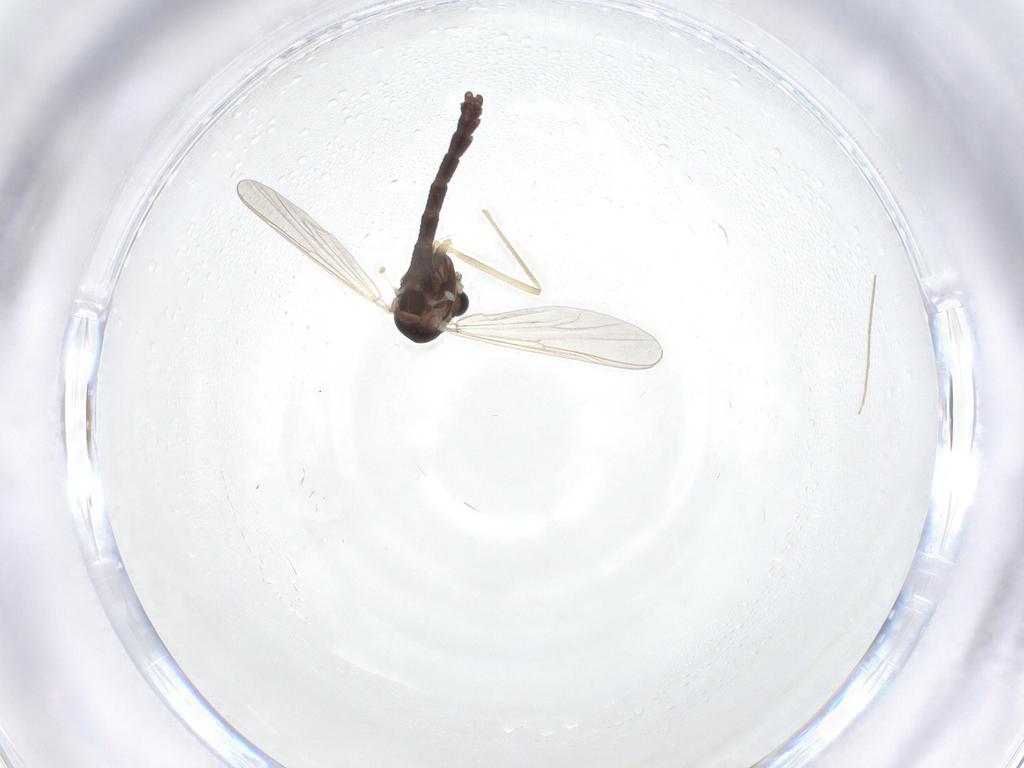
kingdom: Animalia
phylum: Arthropoda
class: Insecta
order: Diptera
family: Chironomidae
